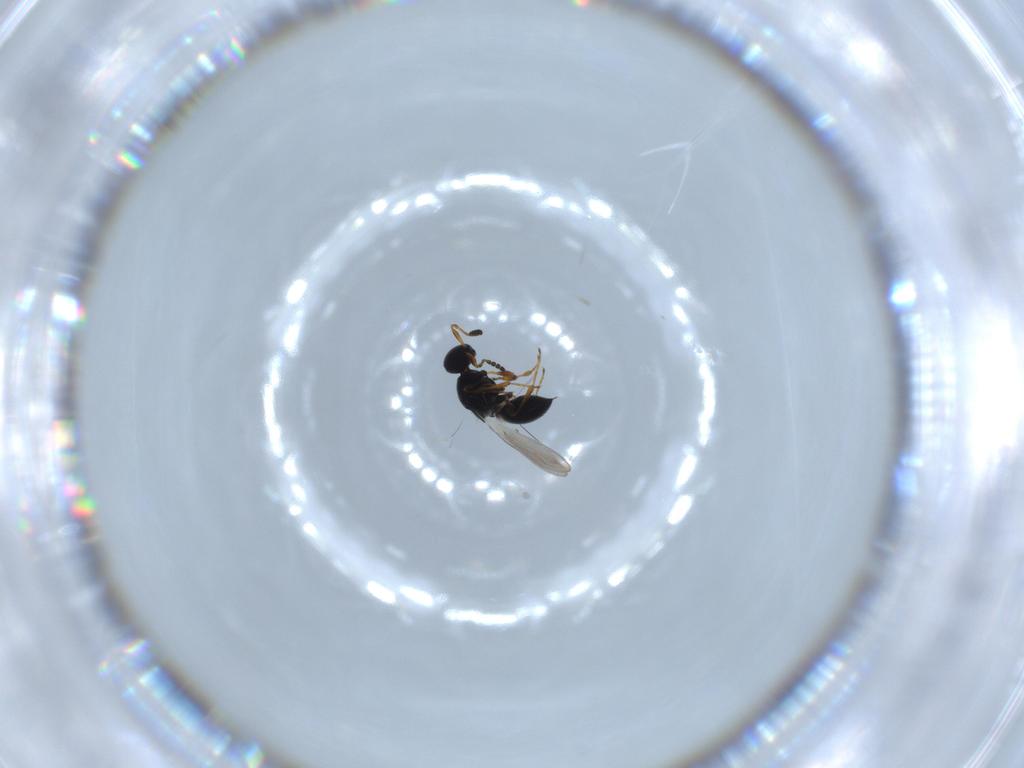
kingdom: Animalia
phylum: Arthropoda
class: Insecta
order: Hymenoptera
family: Platygastridae
